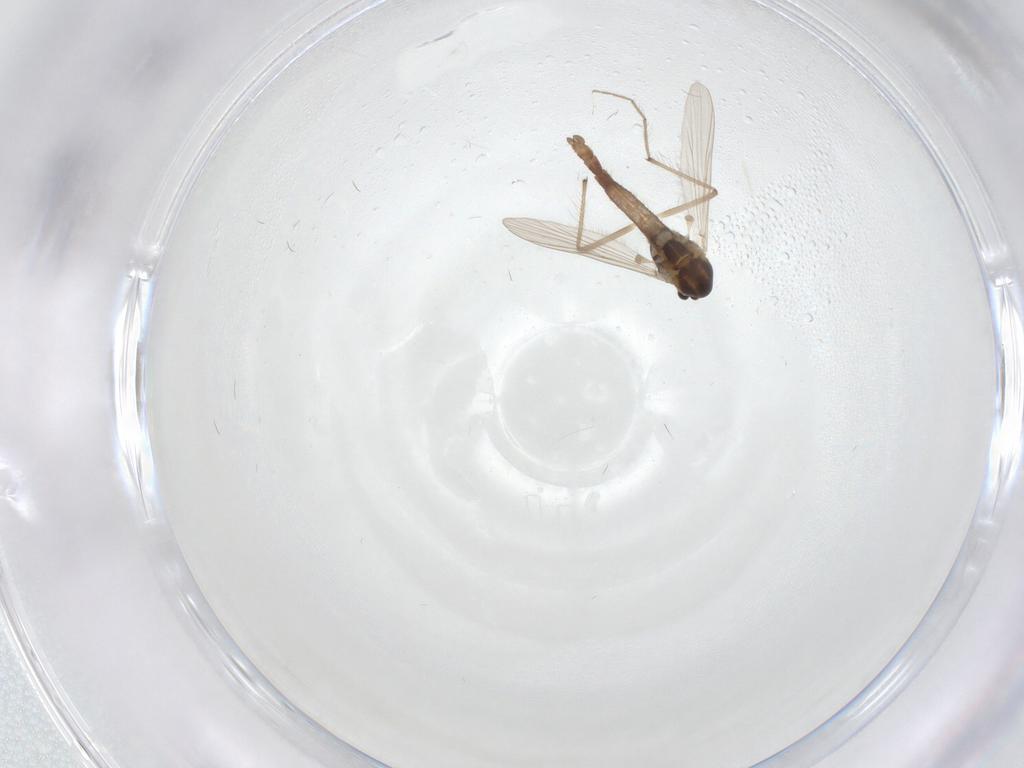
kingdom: Animalia
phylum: Arthropoda
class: Insecta
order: Diptera
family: Chironomidae
